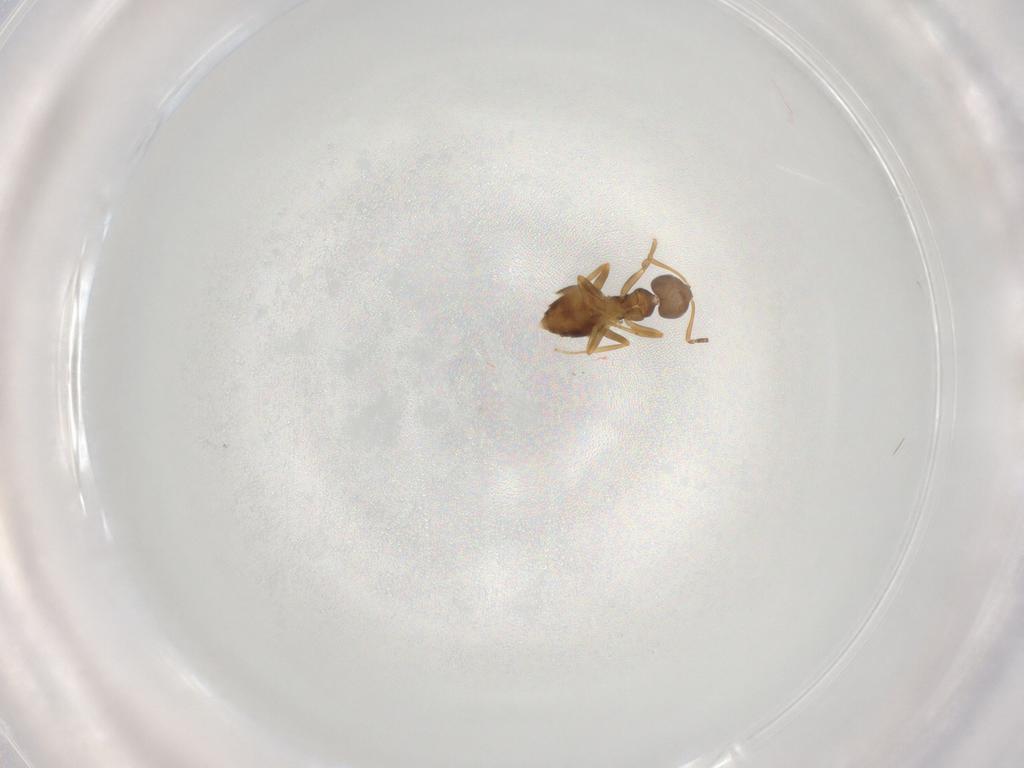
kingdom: Animalia
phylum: Arthropoda
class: Insecta
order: Hymenoptera
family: Formicidae
